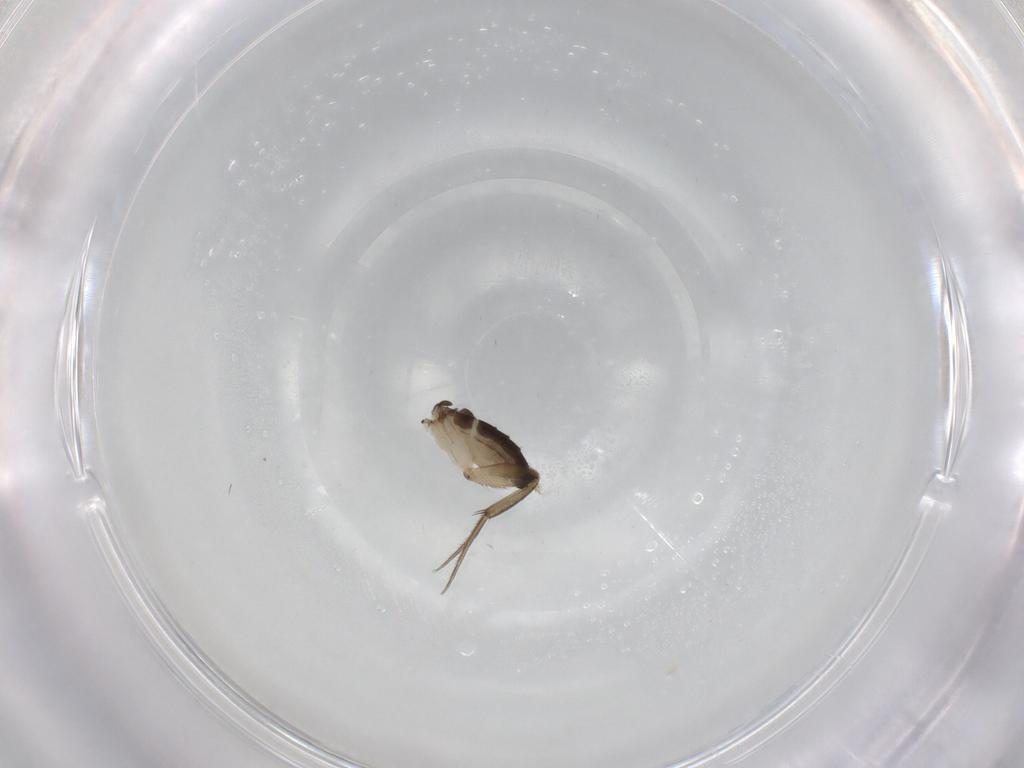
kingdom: Animalia
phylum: Arthropoda
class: Insecta
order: Diptera
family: Phoridae
